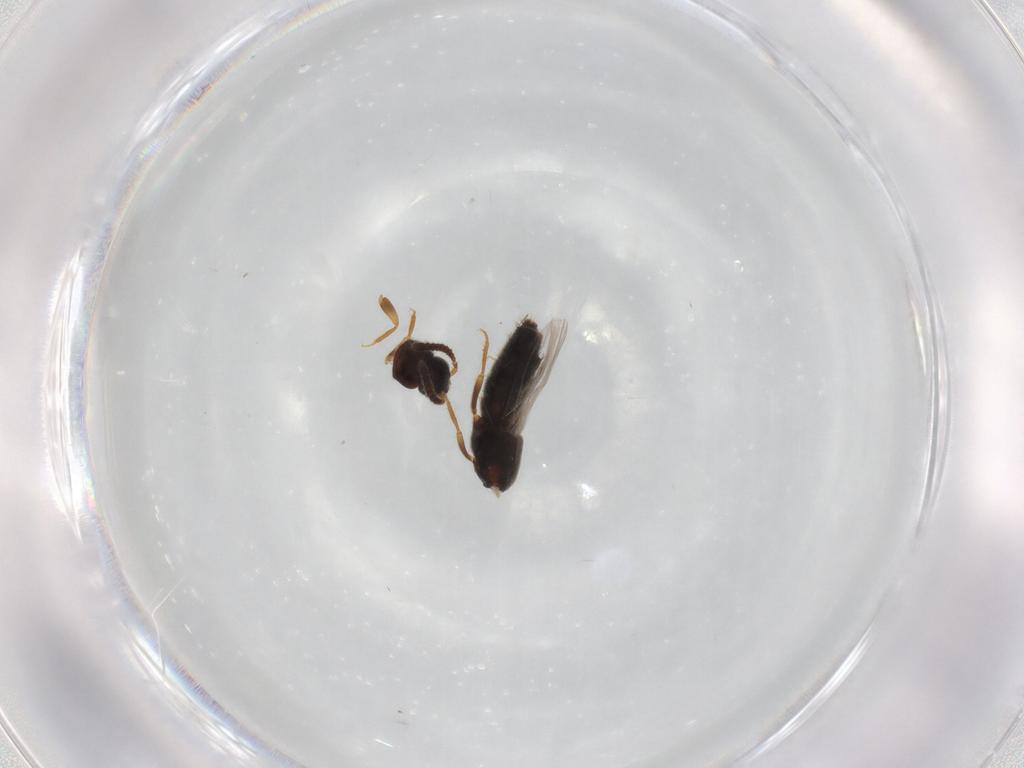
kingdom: Animalia
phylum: Arthropoda
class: Insecta
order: Coleoptera
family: Staphylinidae
